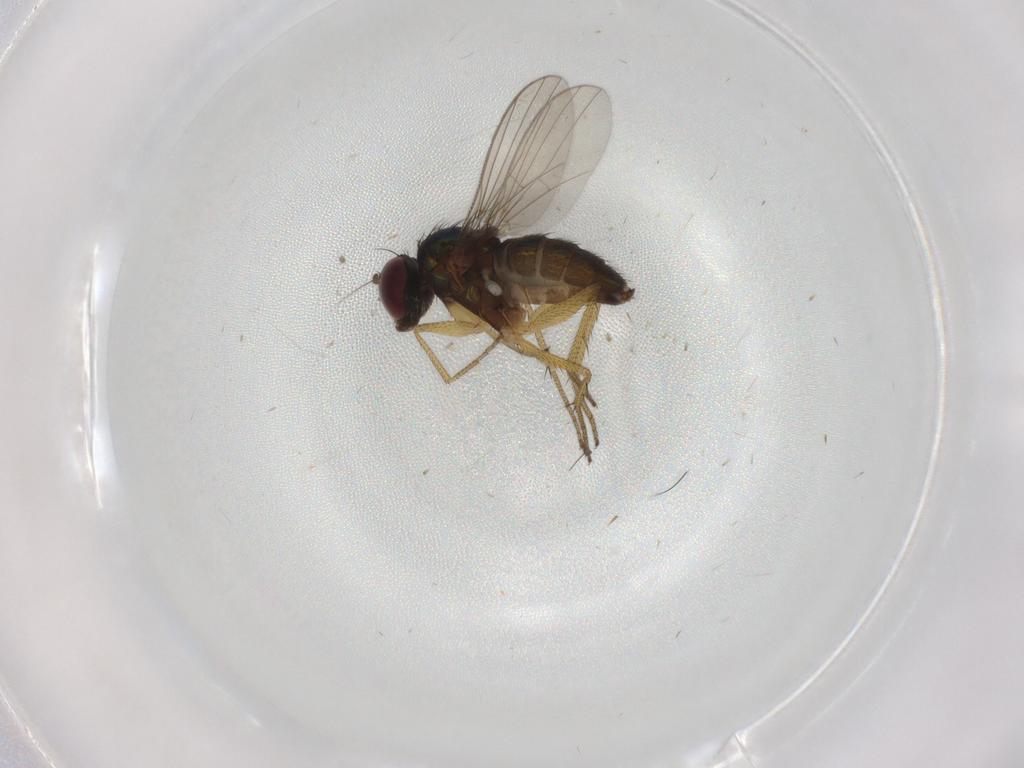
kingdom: Animalia
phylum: Arthropoda
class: Insecta
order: Diptera
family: Dolichopodidae
